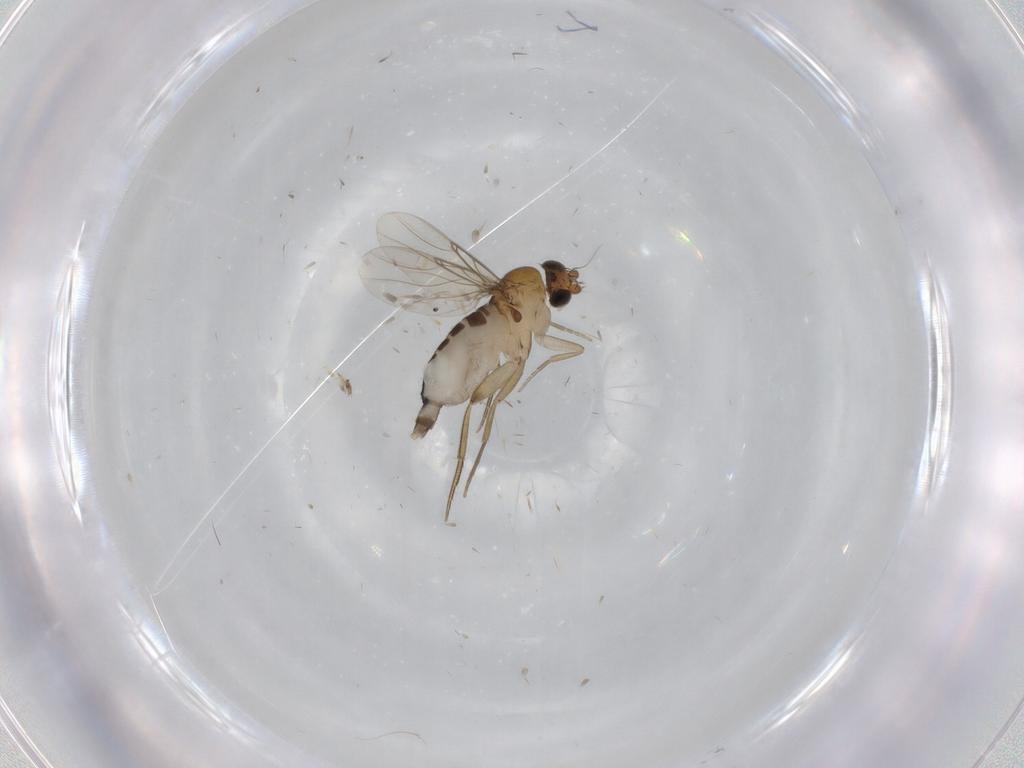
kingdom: Animalia
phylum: Arthropoda
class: Insecta
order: Diptera
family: Phoridae
